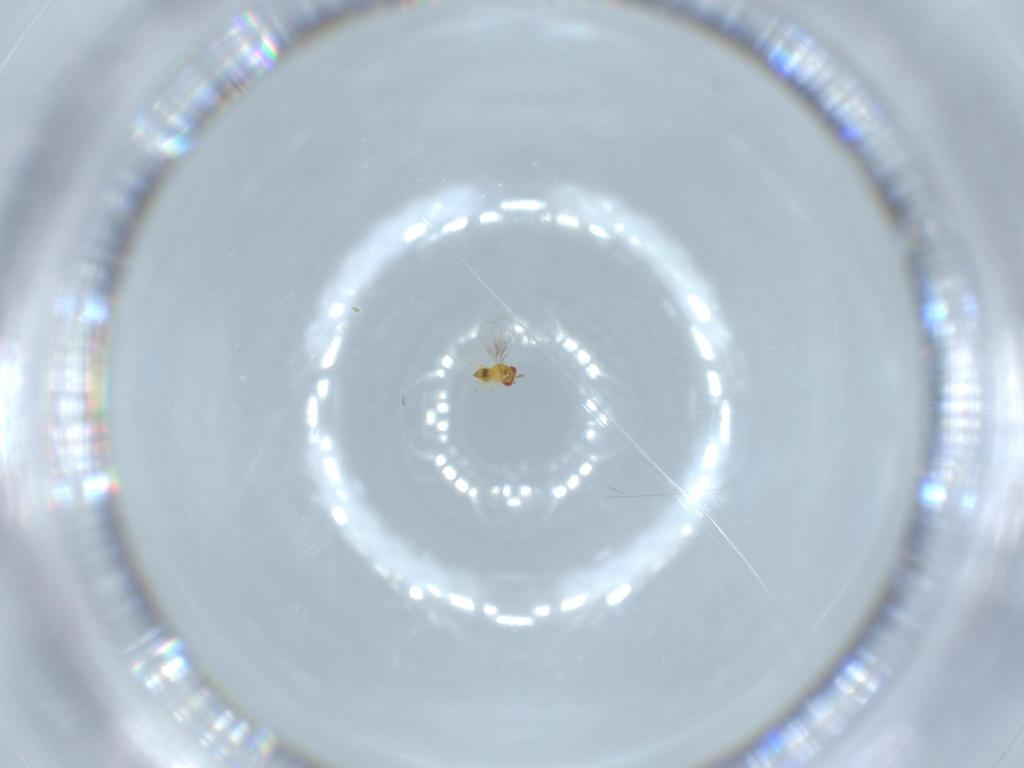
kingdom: Animalia
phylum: Arthropoda
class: Insecta
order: Hymenoptera
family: Trichogrammatidae
